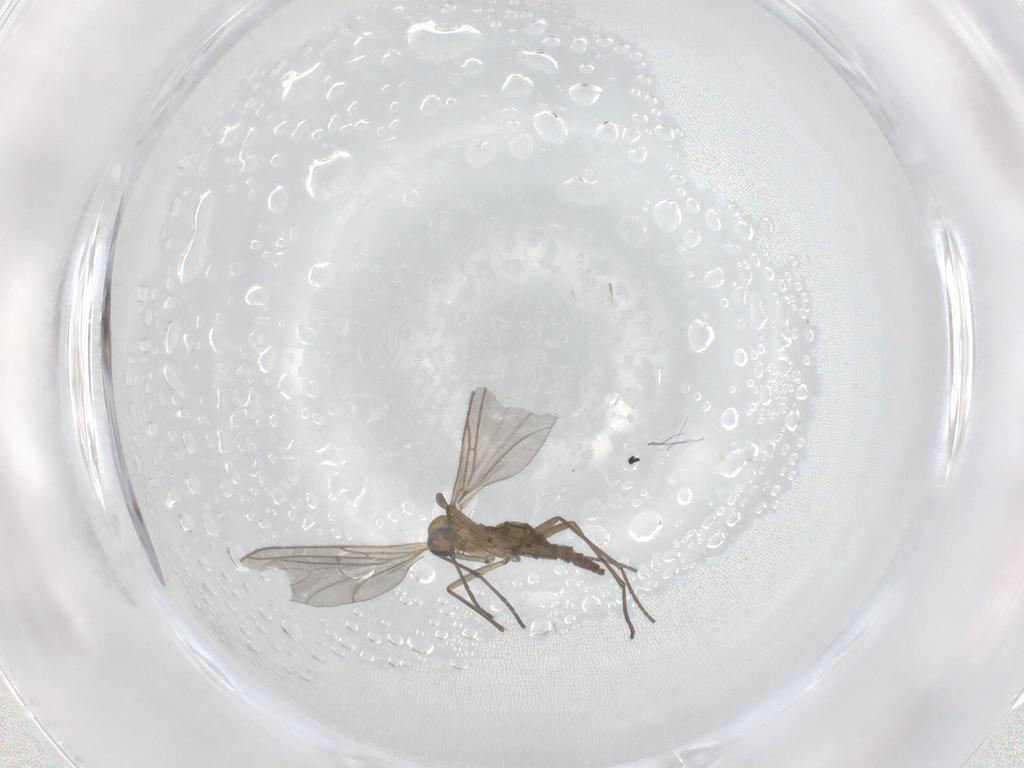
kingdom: Animalia
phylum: Arthropoda
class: Insecta
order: Diptera
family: Sciaridae
